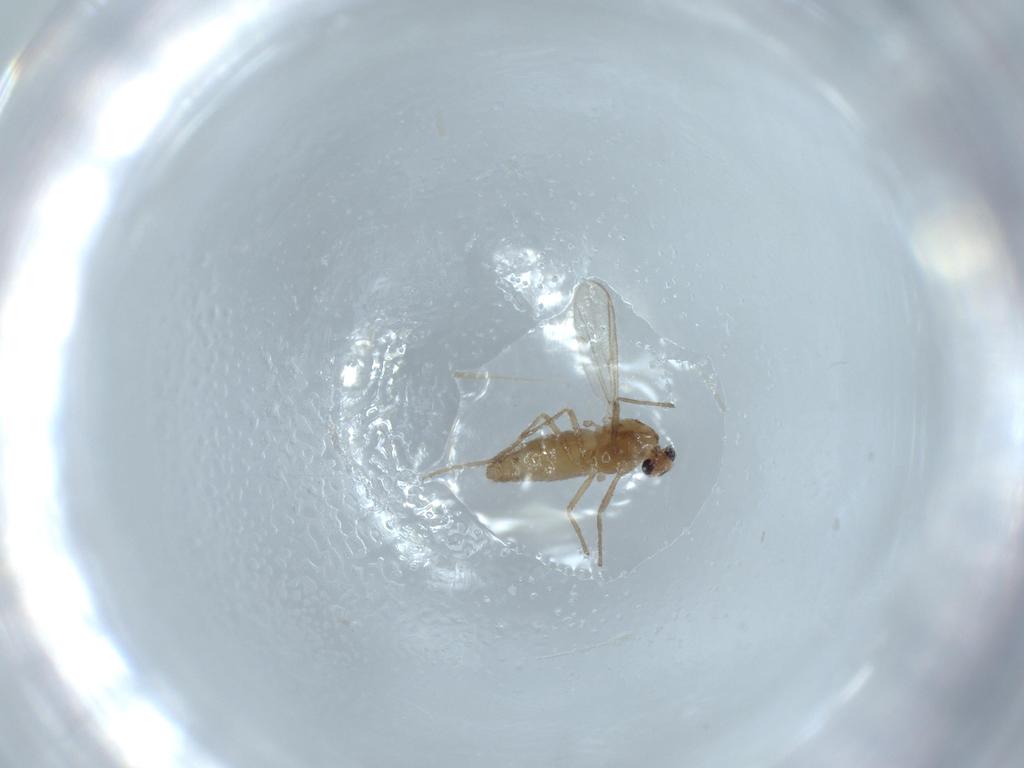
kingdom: Animalia
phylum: Arthropoda
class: Insecta
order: Diptera
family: Chironomidae
